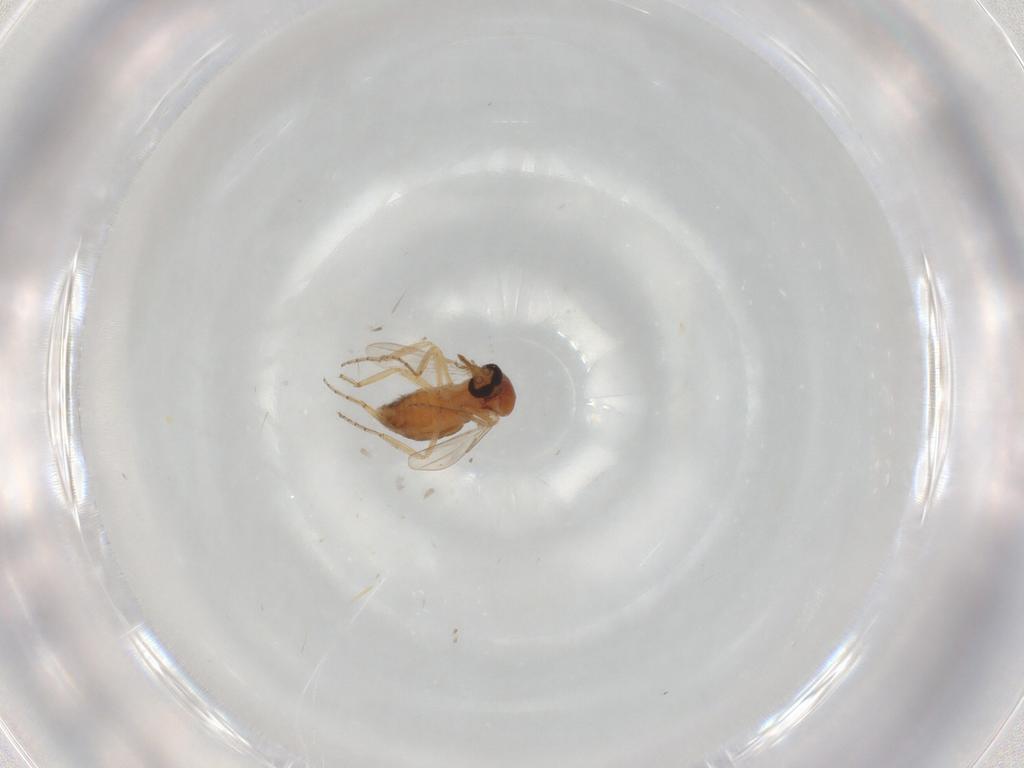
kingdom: Animalia
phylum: Arthropoda
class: Insecta
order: Diptera
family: Ceratopogonidae
